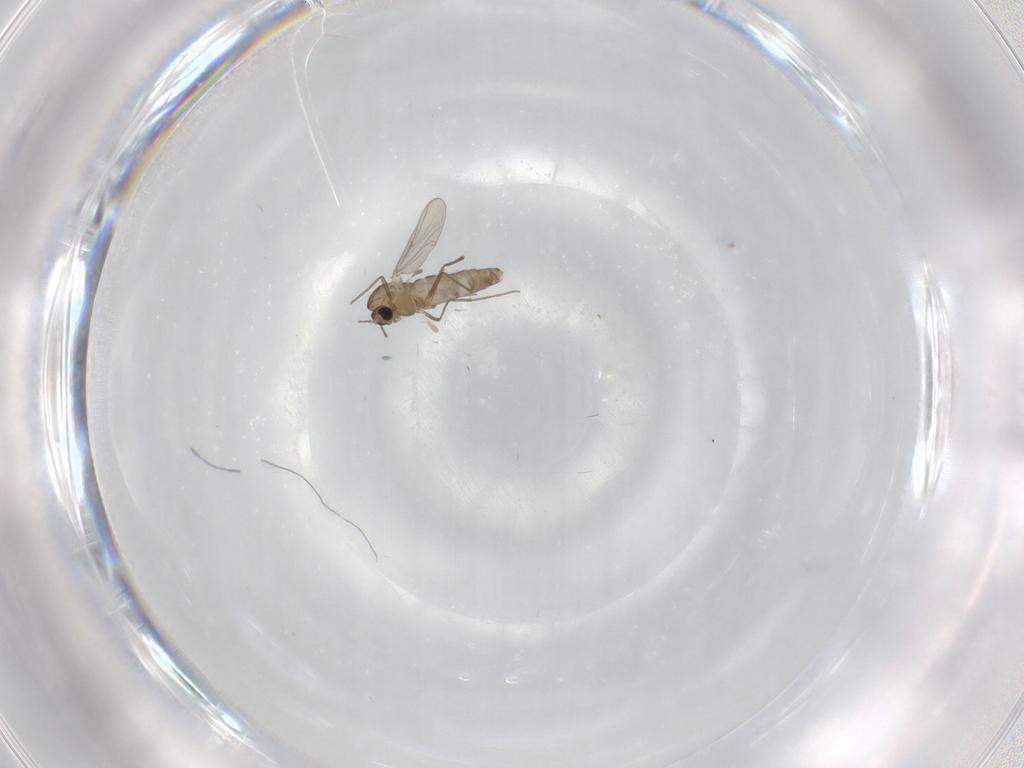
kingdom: Animalia
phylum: Arthropoda
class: Insecta
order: Diptera
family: Chironomidae
